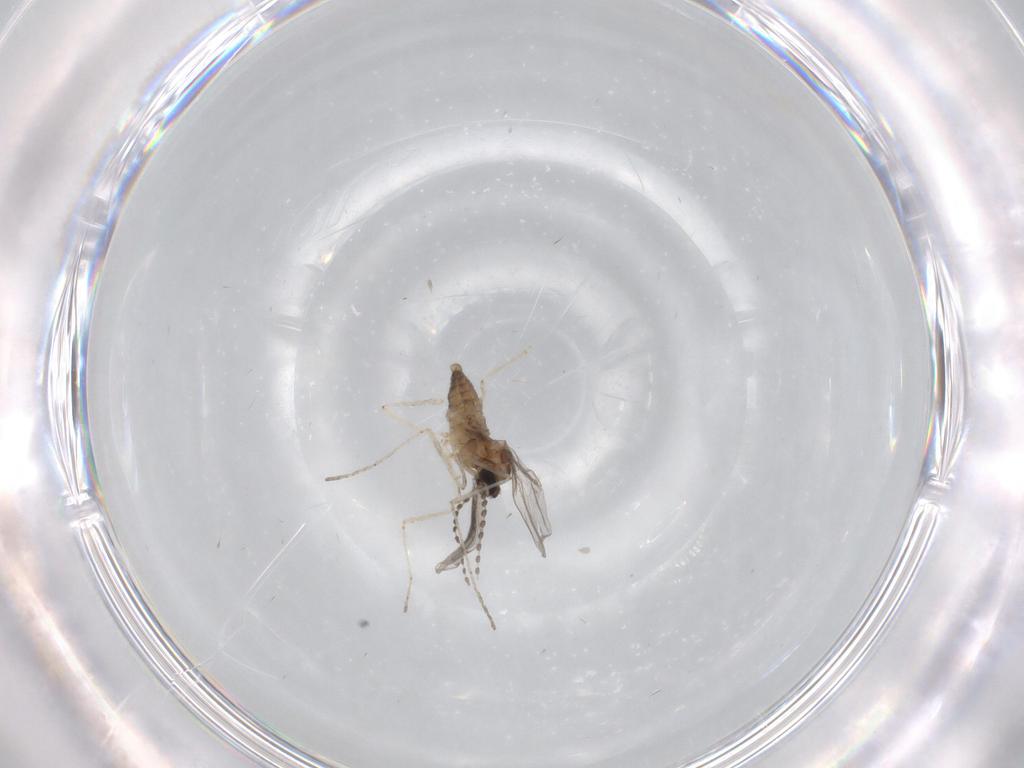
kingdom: Animalia
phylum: Arthropoda
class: Insecta
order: Diptera
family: Cecidomyiidae
